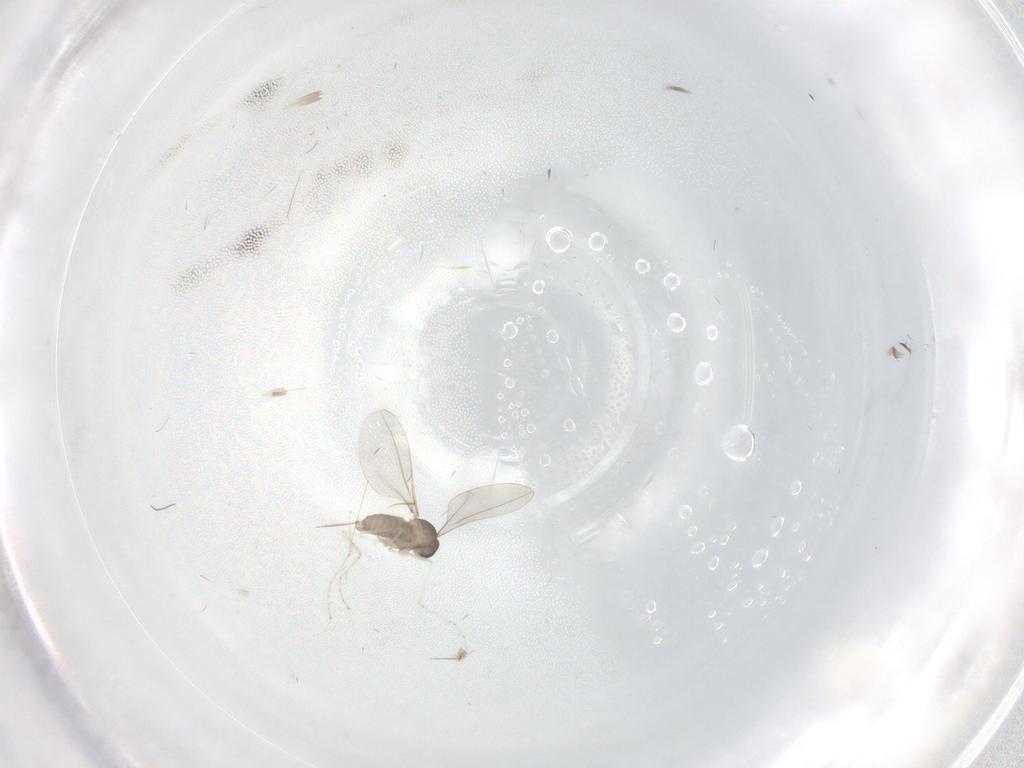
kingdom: Animalia
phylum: Arthropoda
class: Insecta
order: Diptera
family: Cecidomyiidae
